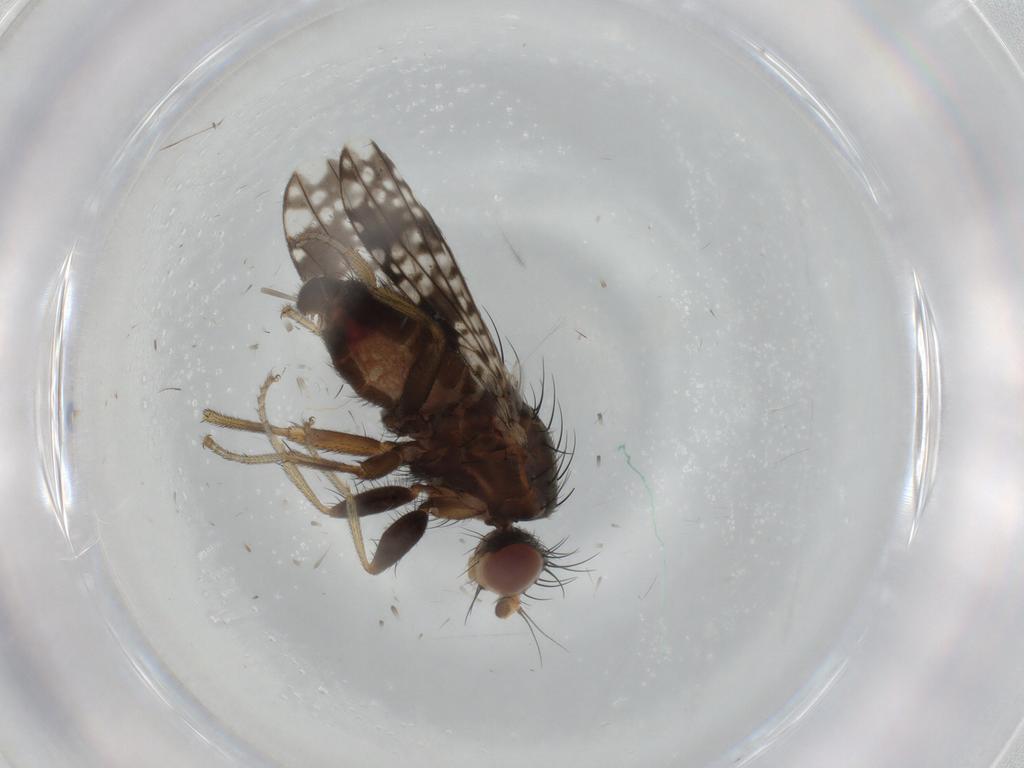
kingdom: Animalia
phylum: Arthropoda
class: Insecta
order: Diptera
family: Tephritidae
